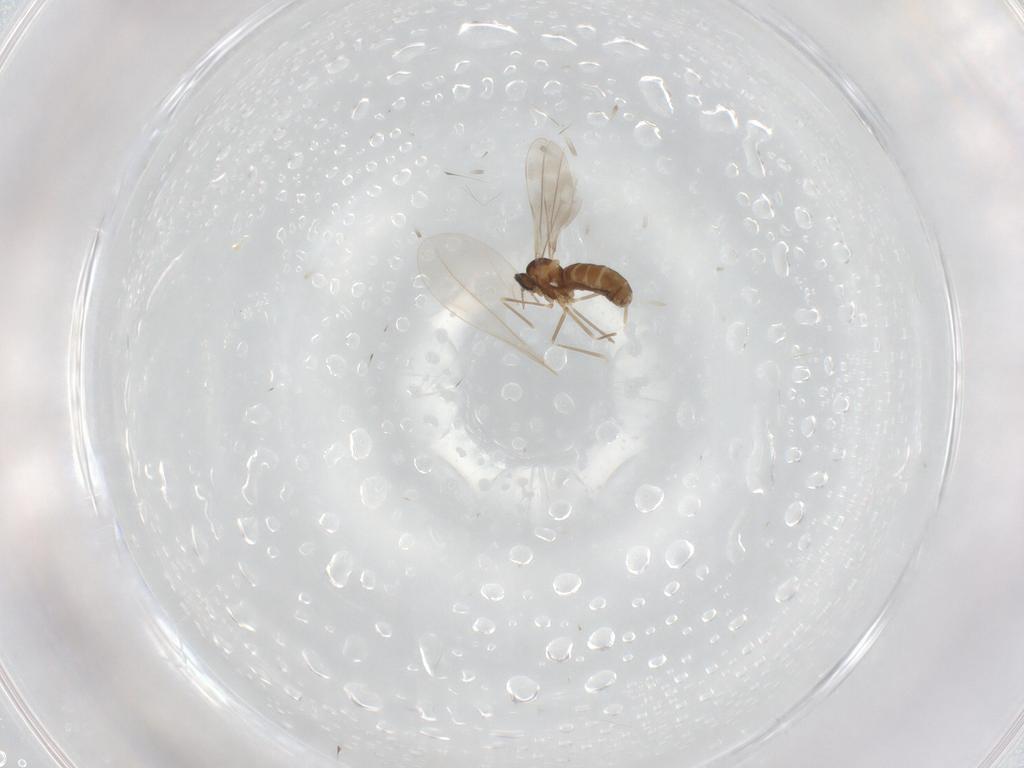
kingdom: Animalia
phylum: Arthropoda
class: Insecta
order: Diptera
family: Cecidomyiidae
